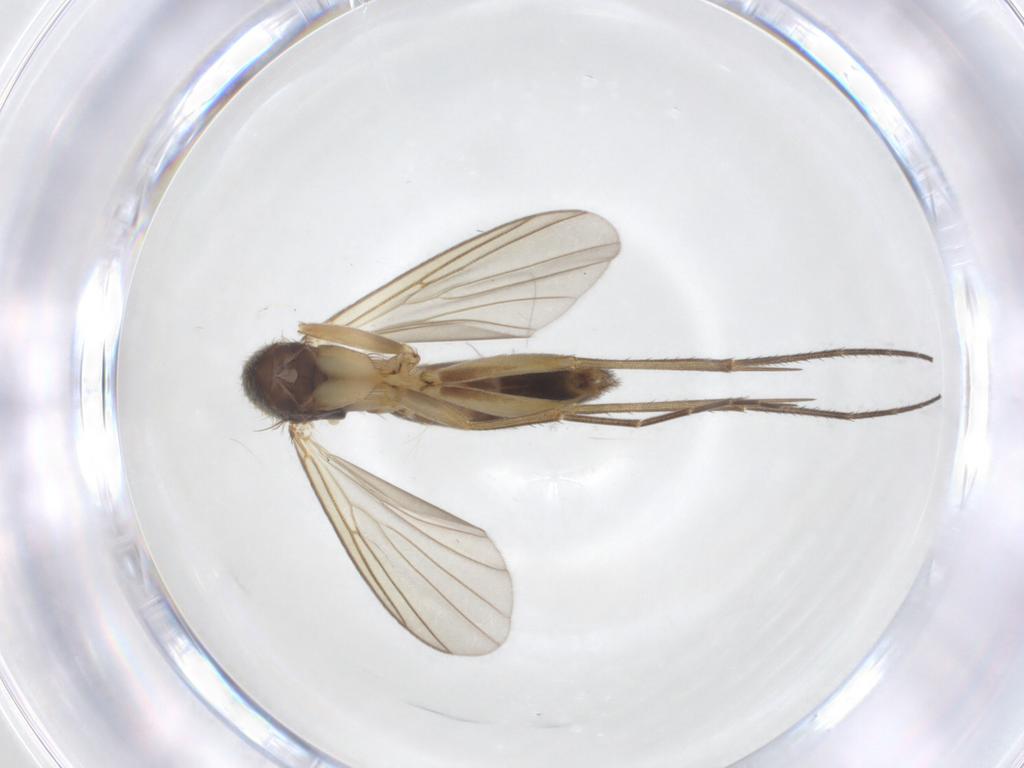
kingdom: Animalia
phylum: Arthropoda
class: Insecta
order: Diptera
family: Mycetophilidae
